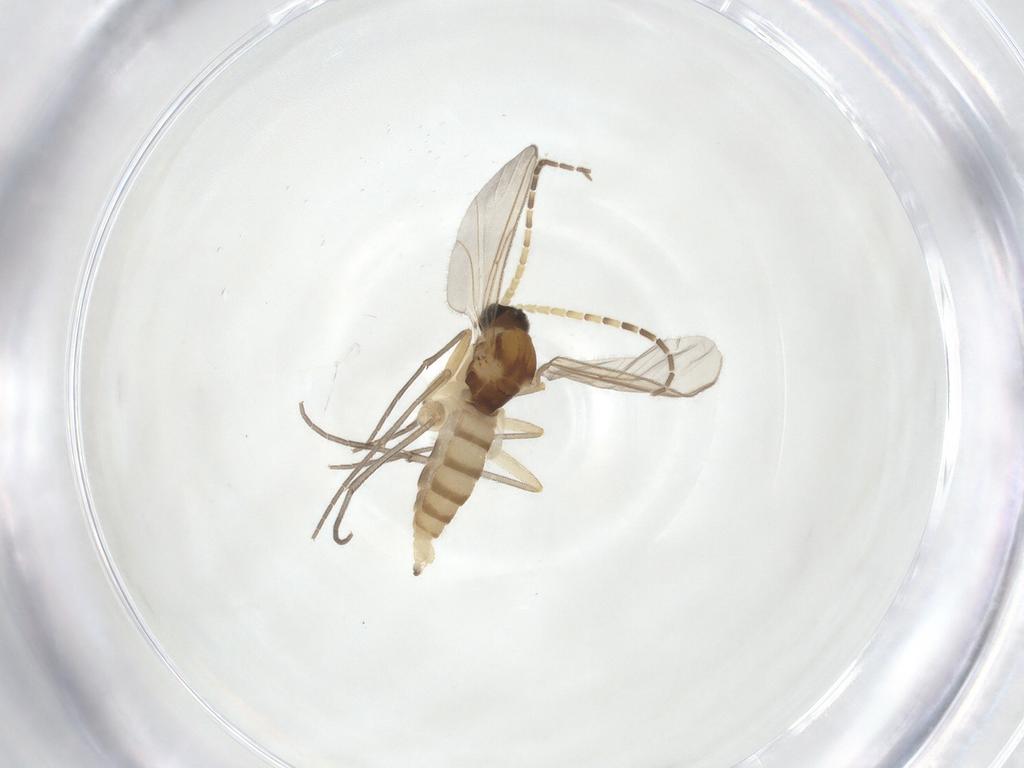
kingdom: Animalia
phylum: Arthropoda
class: Insecta
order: Diptera
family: Sciaridae
